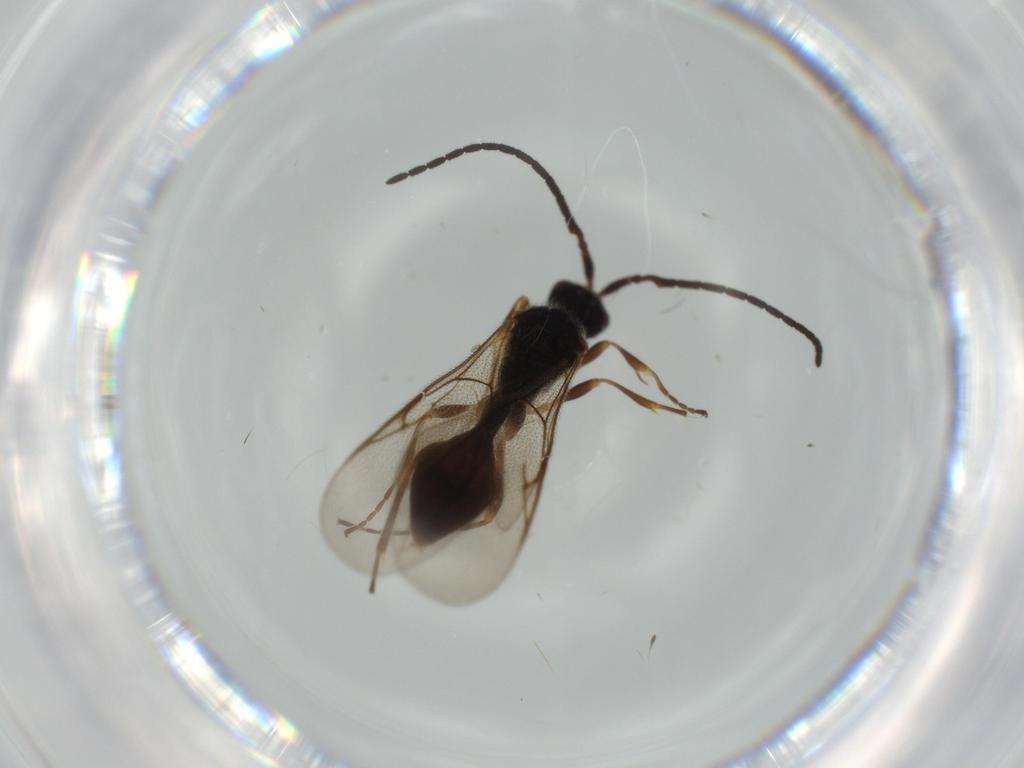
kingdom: Animalia
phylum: Arthropoda
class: Insecta
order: Hymenoptera
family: Diapriidae
